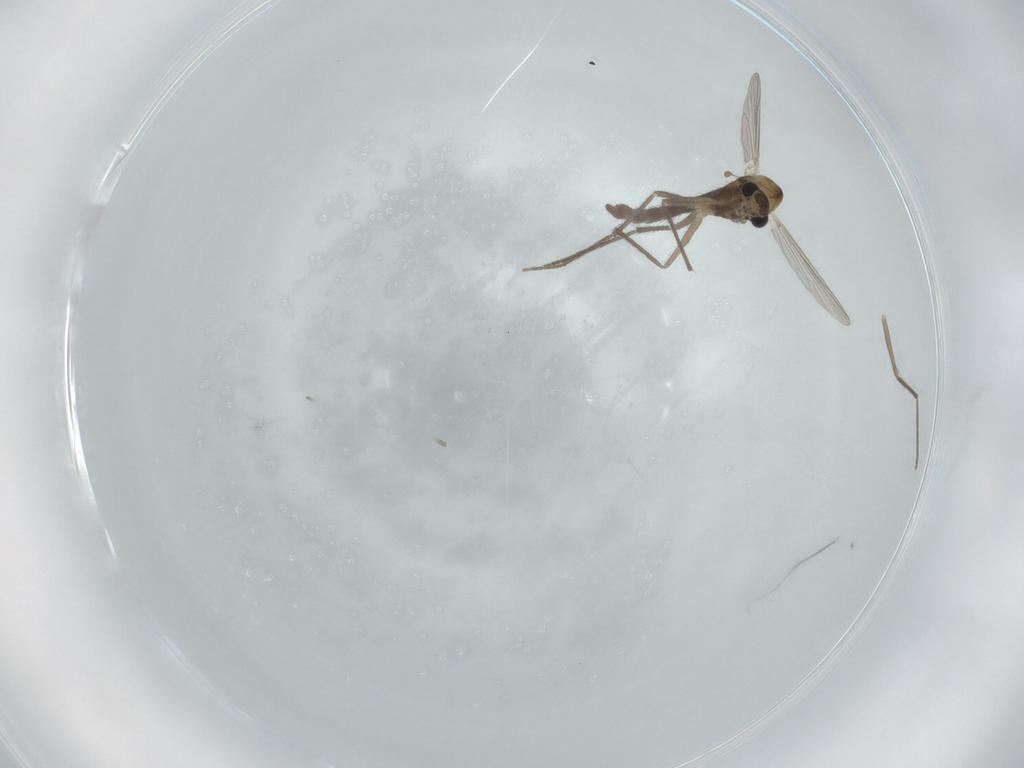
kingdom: Animalia
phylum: Arthropoda
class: Insecta
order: Diptera
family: Chironomidae
